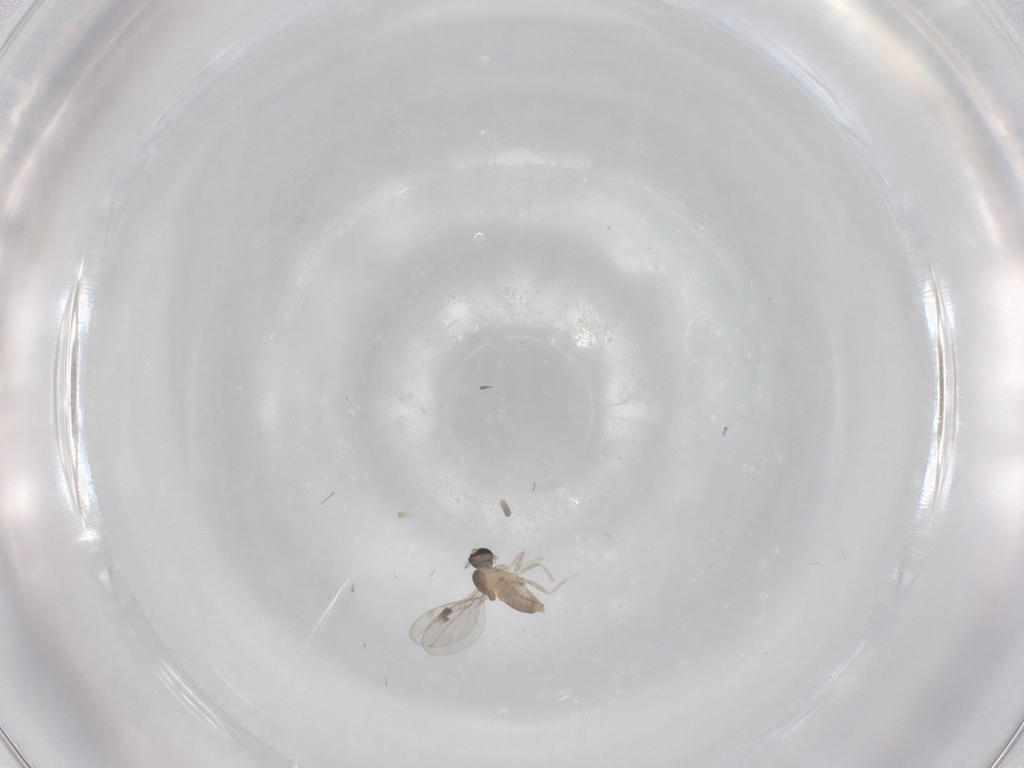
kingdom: Animalia
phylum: Arthropoda
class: Insecta
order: Diptera
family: Cecidomyiidae
